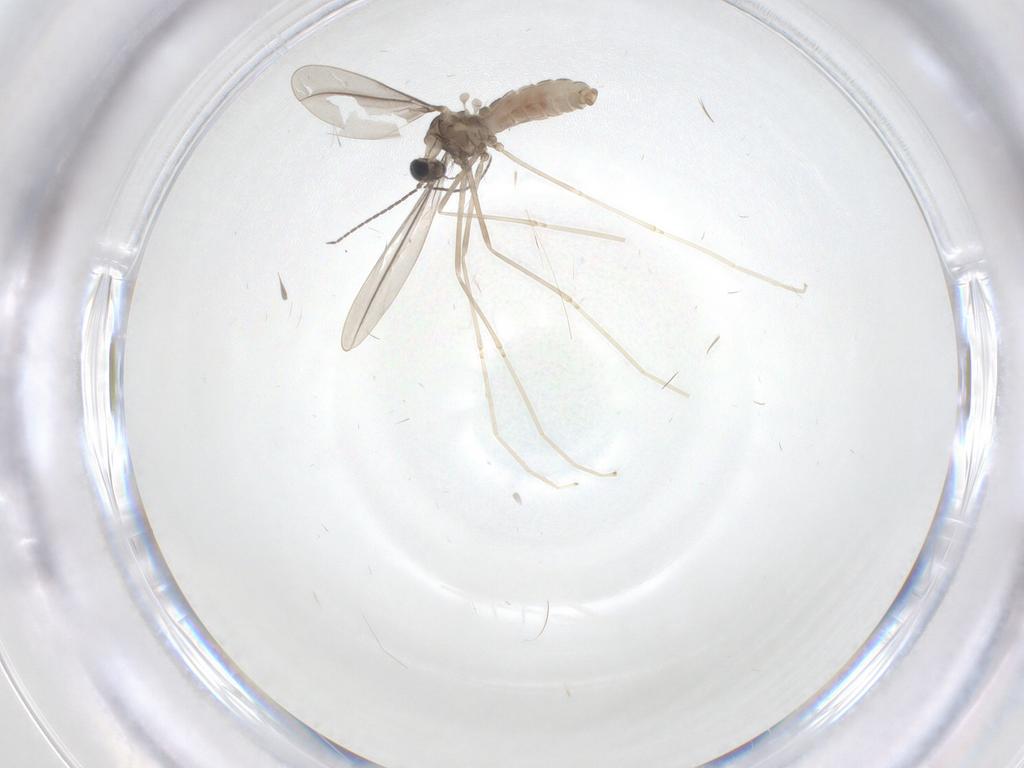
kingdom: Animalia
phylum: Arthropoda
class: Insecta
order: Diptera
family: Cecidomyiidae
